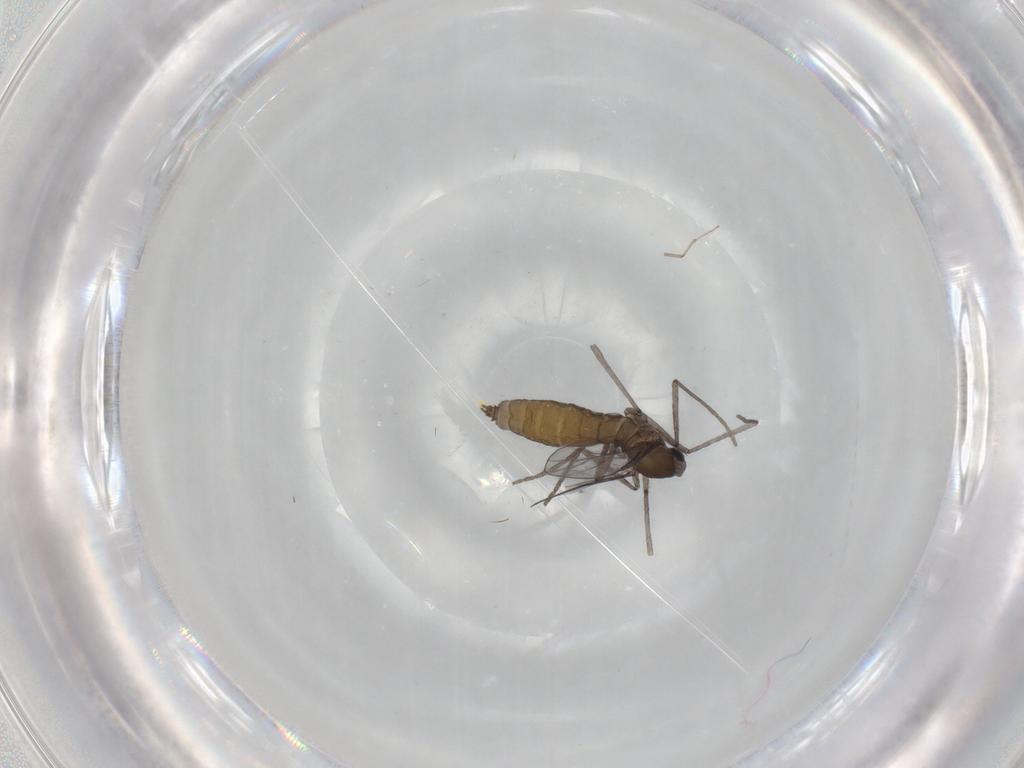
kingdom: Animalia
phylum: Arthropoda
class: Insecta
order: Diptera
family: Cecidomyiidae
